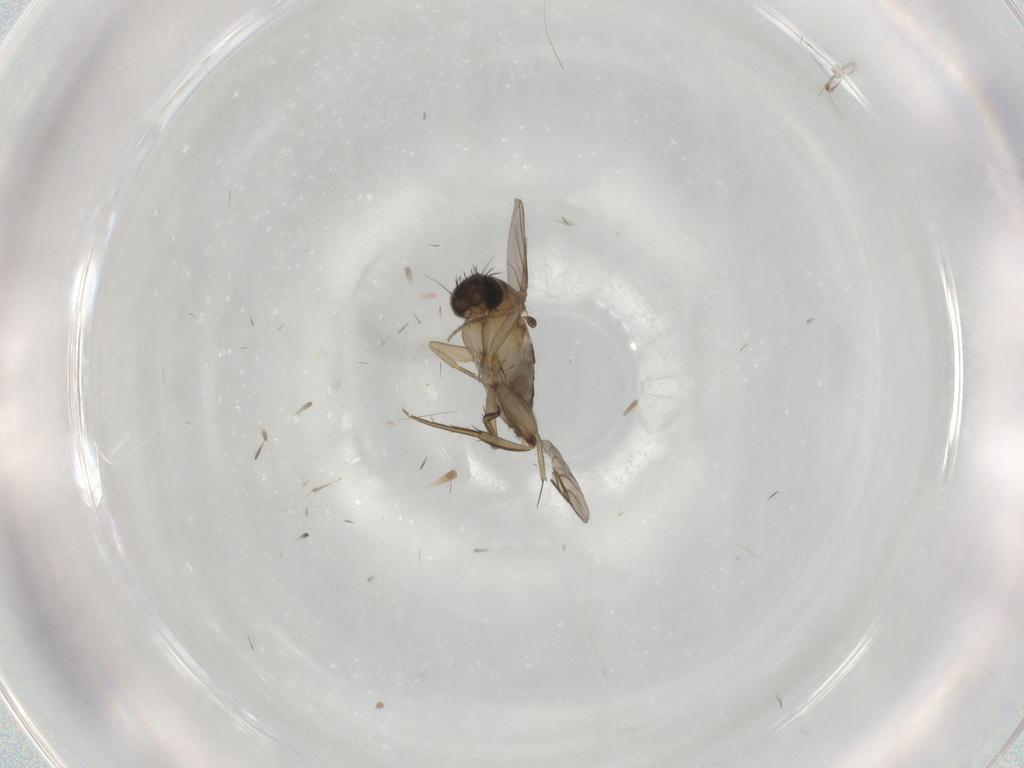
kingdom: Animalia
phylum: Arthropoda
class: Insecta
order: Diptera
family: Phoridae
